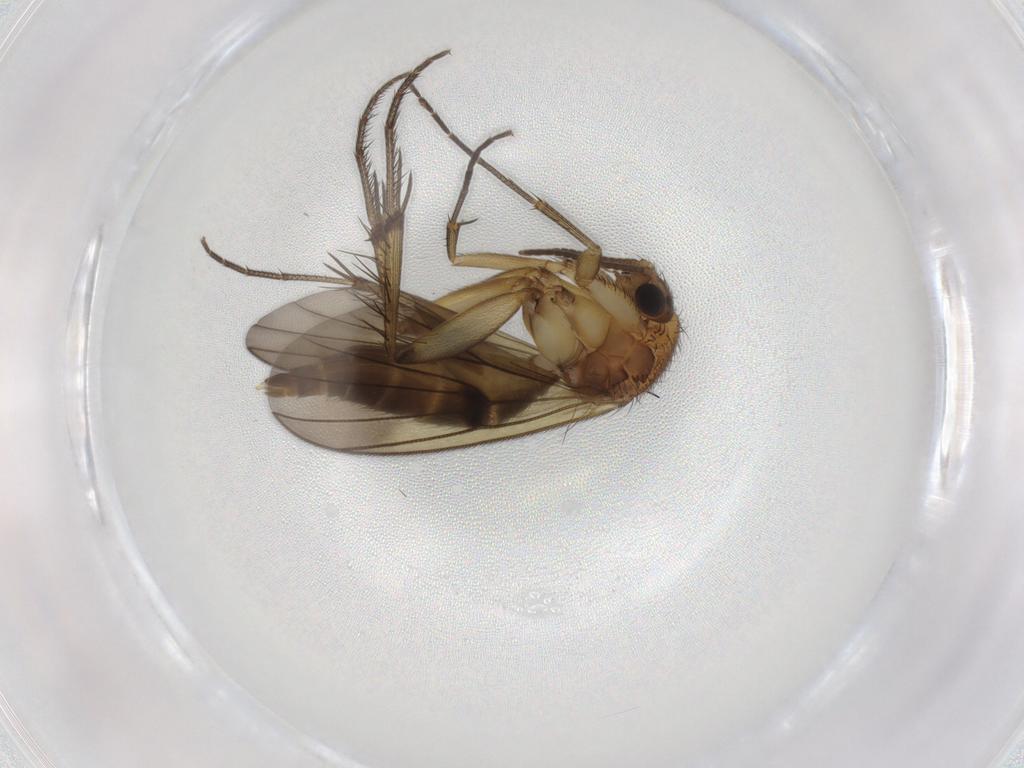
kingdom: Animalia
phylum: Arthropoda
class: Insecta
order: Diptera
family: Mycetophilidae
